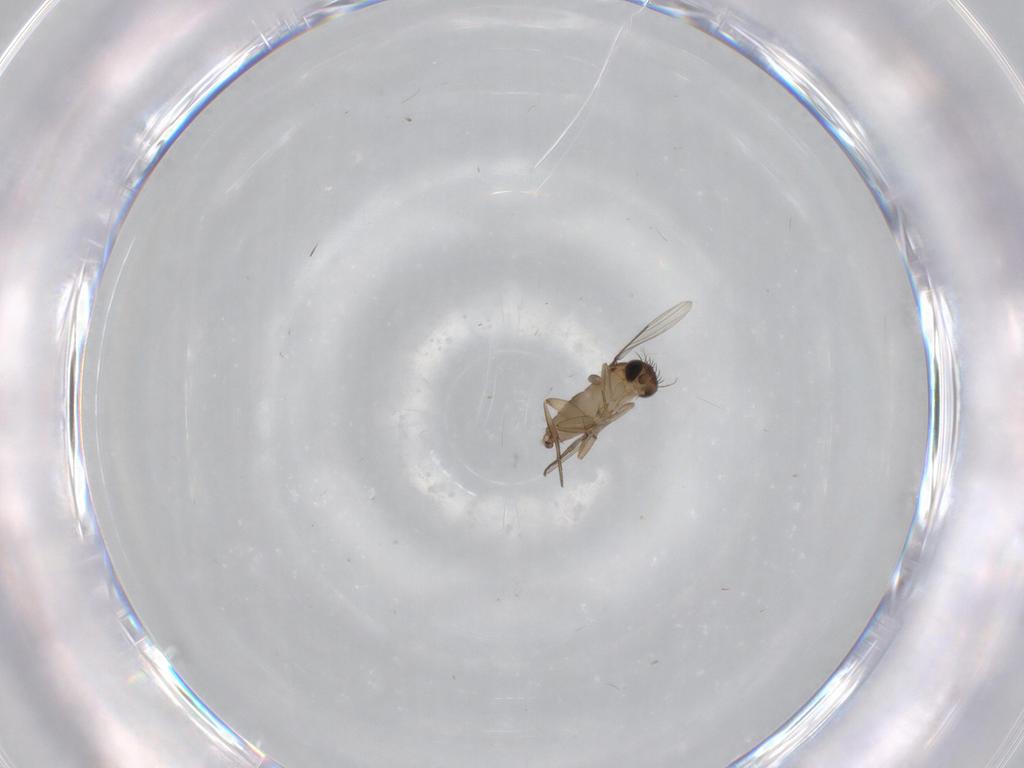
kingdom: Animalia
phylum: Arthropoda
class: Insecta
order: Diptera
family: Phoridae
